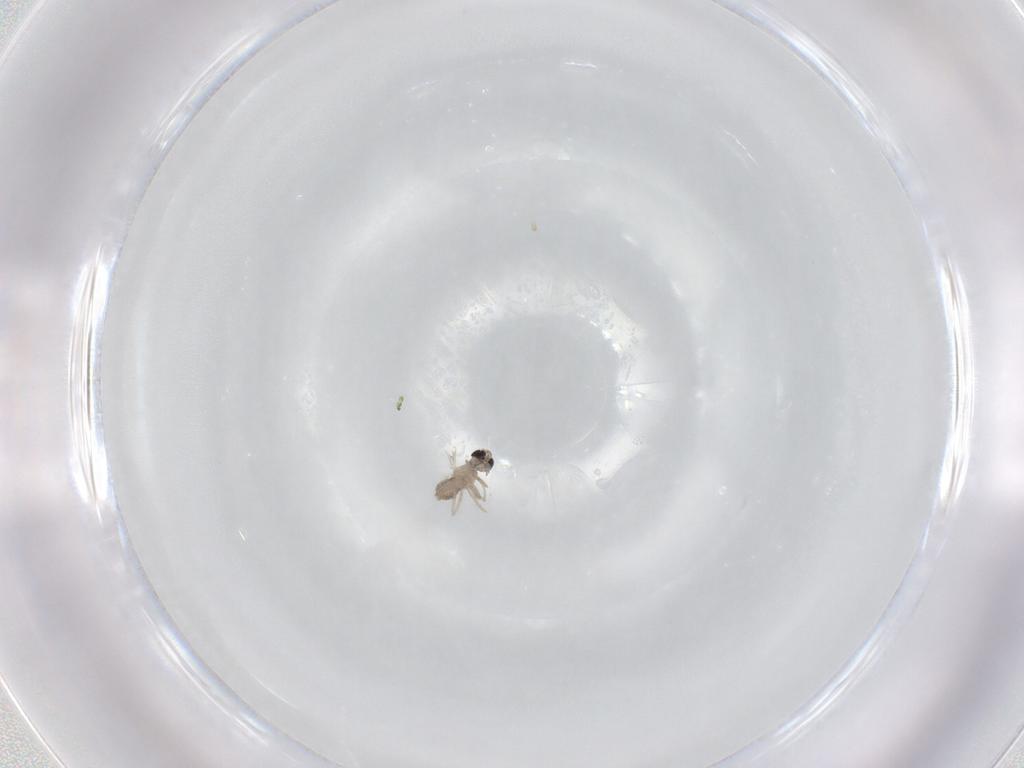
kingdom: Animalia
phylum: Arthropoda
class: Insecta
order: Diptera
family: Cecidomyiidae
